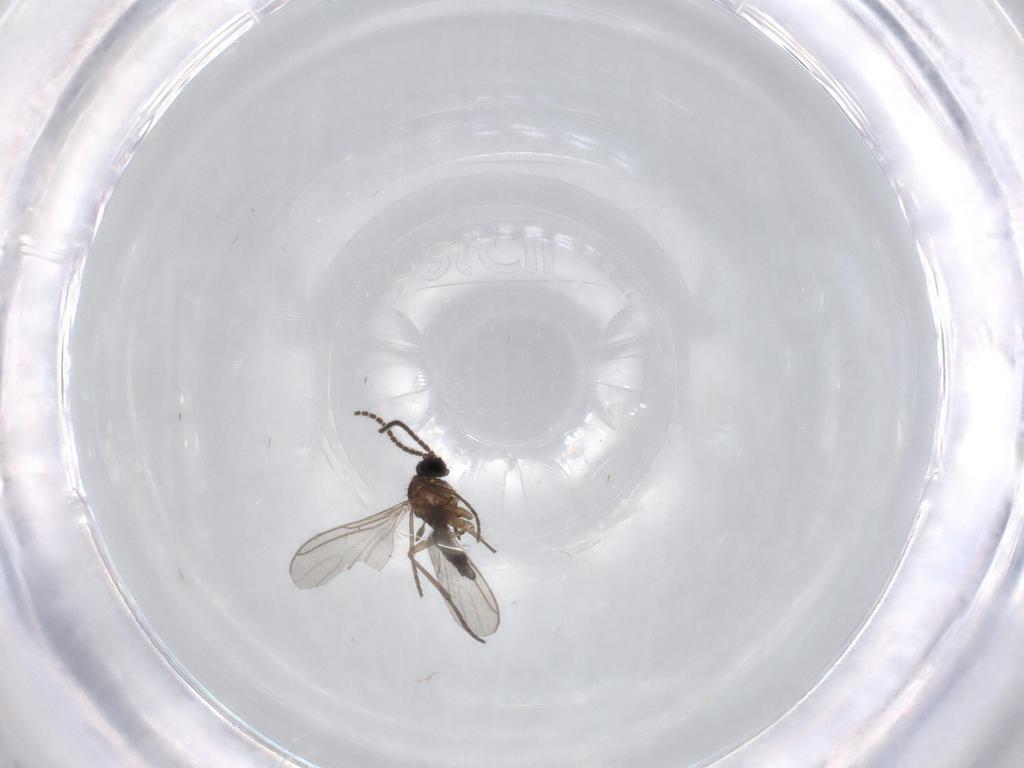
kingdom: Animalia
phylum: Arthropoda
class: Insecta
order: Diptera
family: Sciaridae
